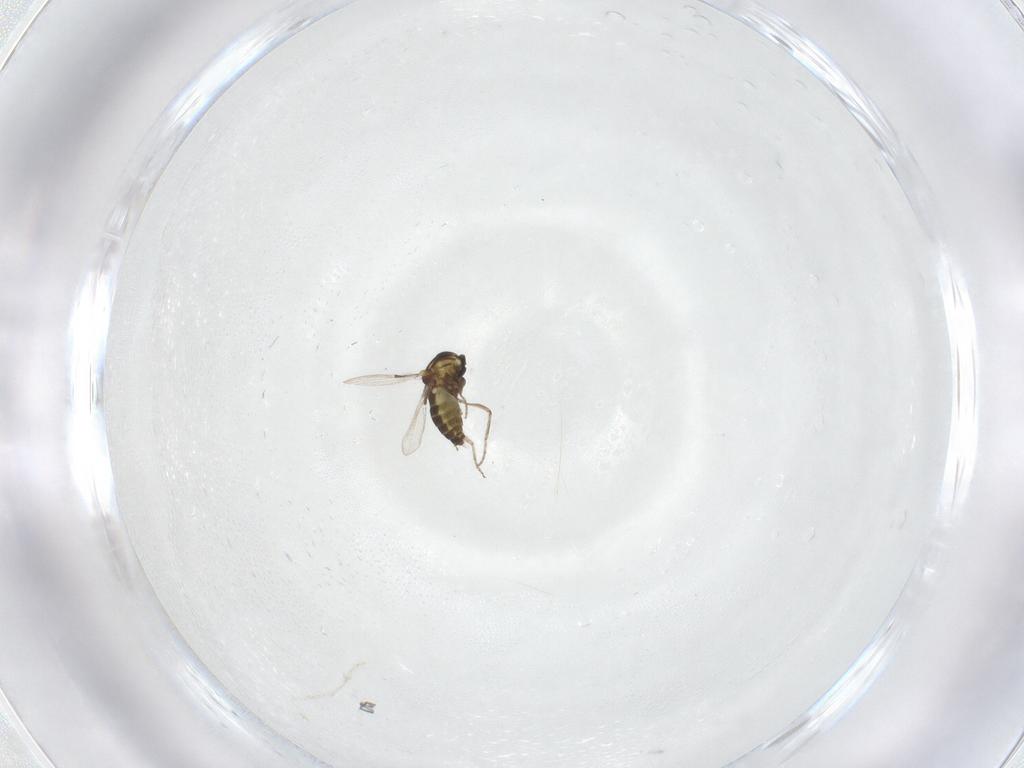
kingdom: Animalia
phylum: Arthropoda
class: Insecta
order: Diptera
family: Ceratopogonidae
